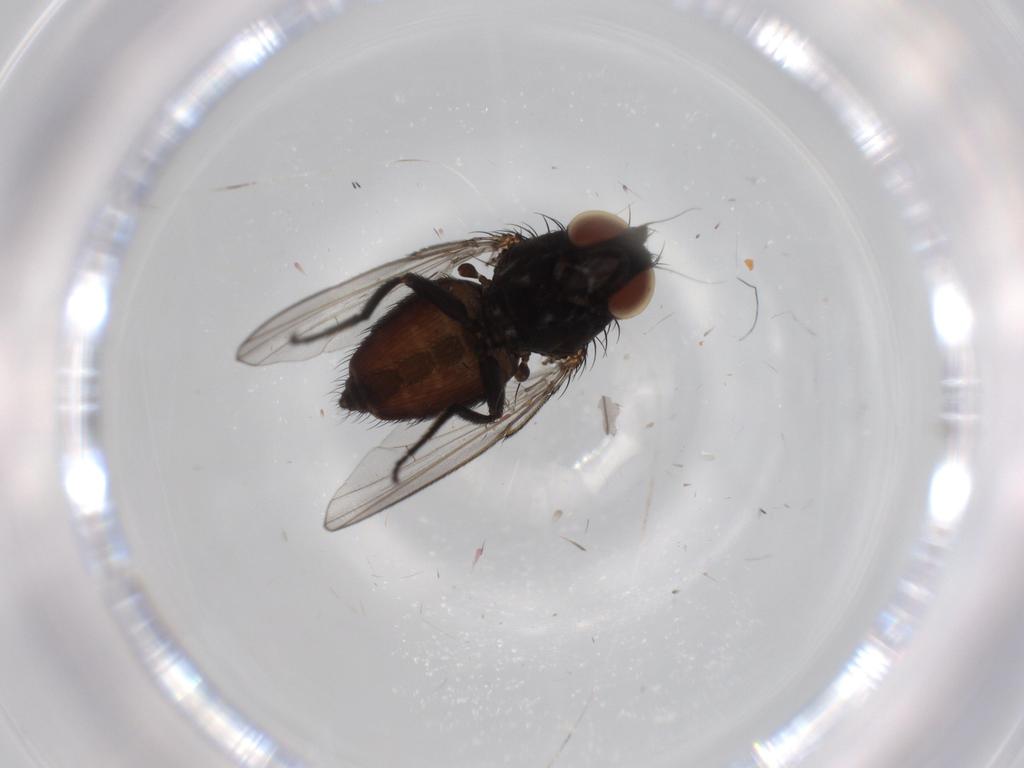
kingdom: Animalia
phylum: Arthropoda
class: Insecta
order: Diptera
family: Milichiidae
